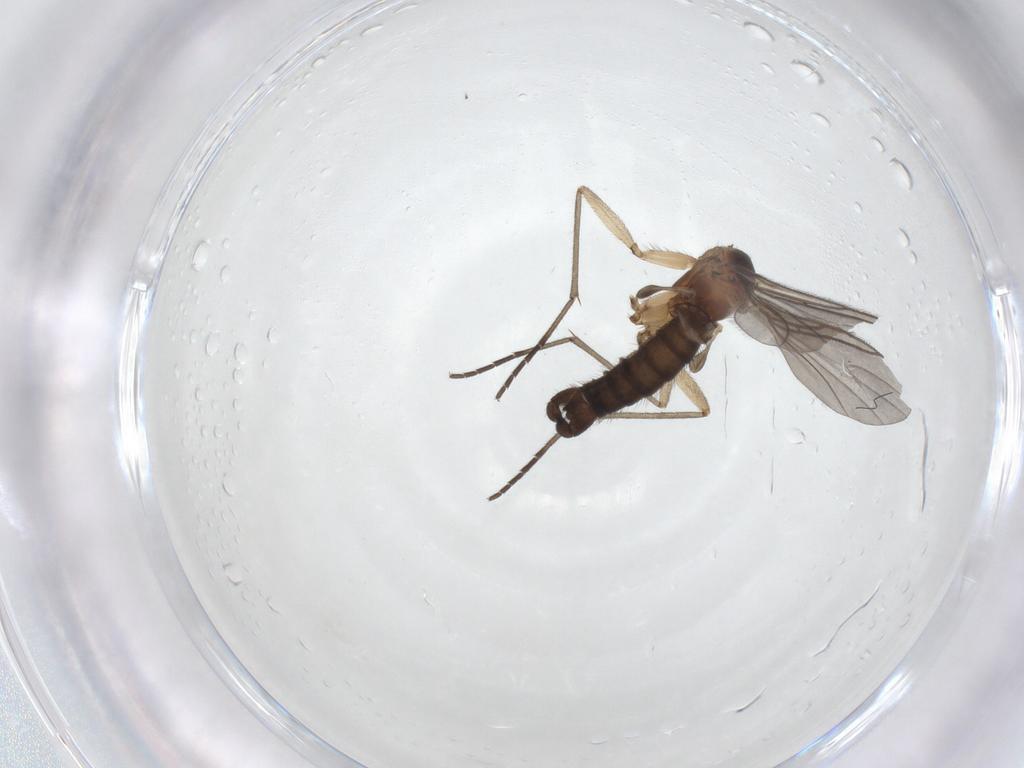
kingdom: Animalia
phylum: Arthropoda
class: Insecta
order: Diptera
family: Sciaridae
